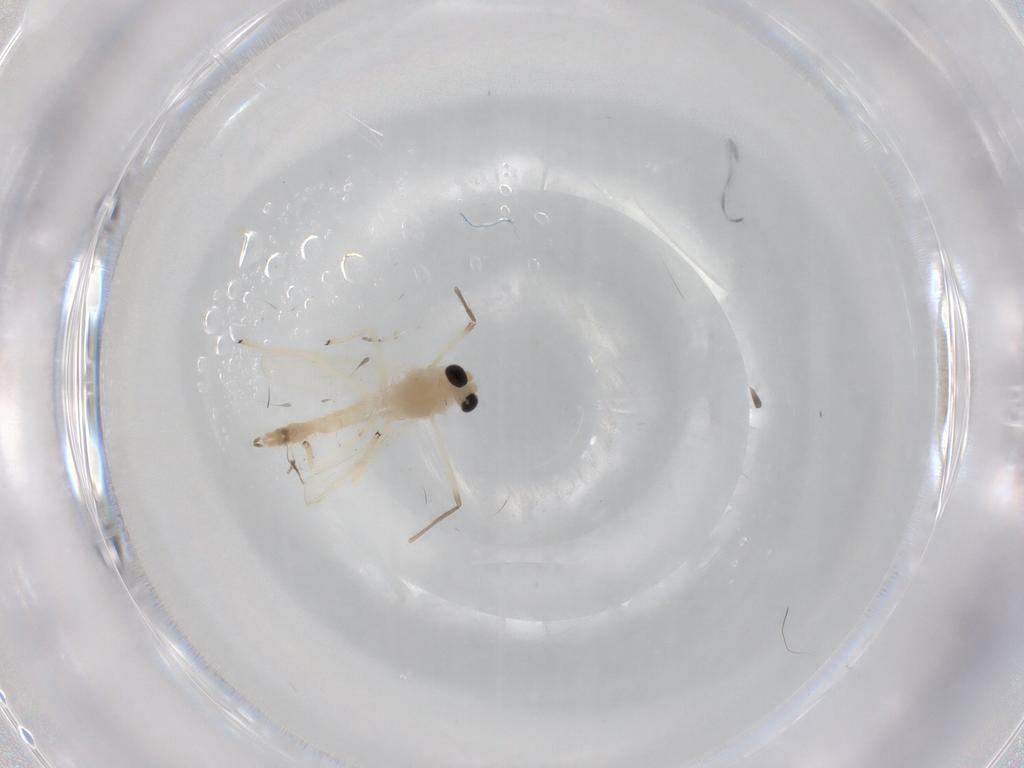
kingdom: Animalia
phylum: Arthropoda
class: Insecta
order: Diptera
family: Chironomidae
